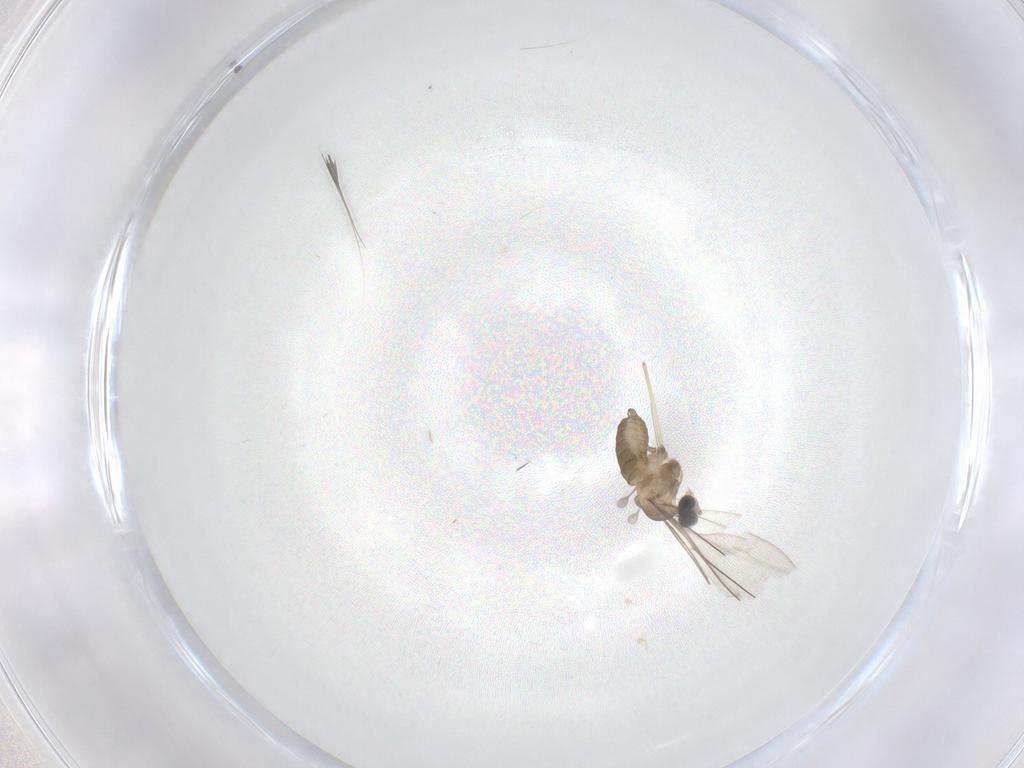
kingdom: Animalia
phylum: Arthropoda
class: Insecta
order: Diptera
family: Cecidomyiidae
